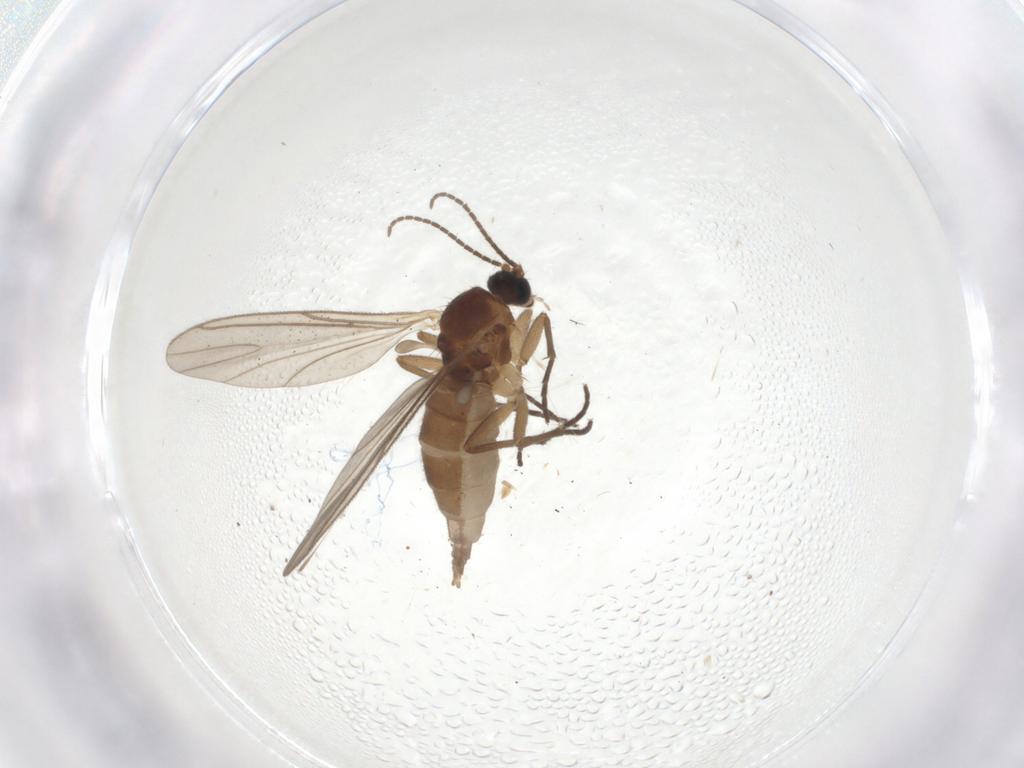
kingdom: Animalia
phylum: Arthropoda
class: Insecta
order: Diptera
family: Sciaridae
